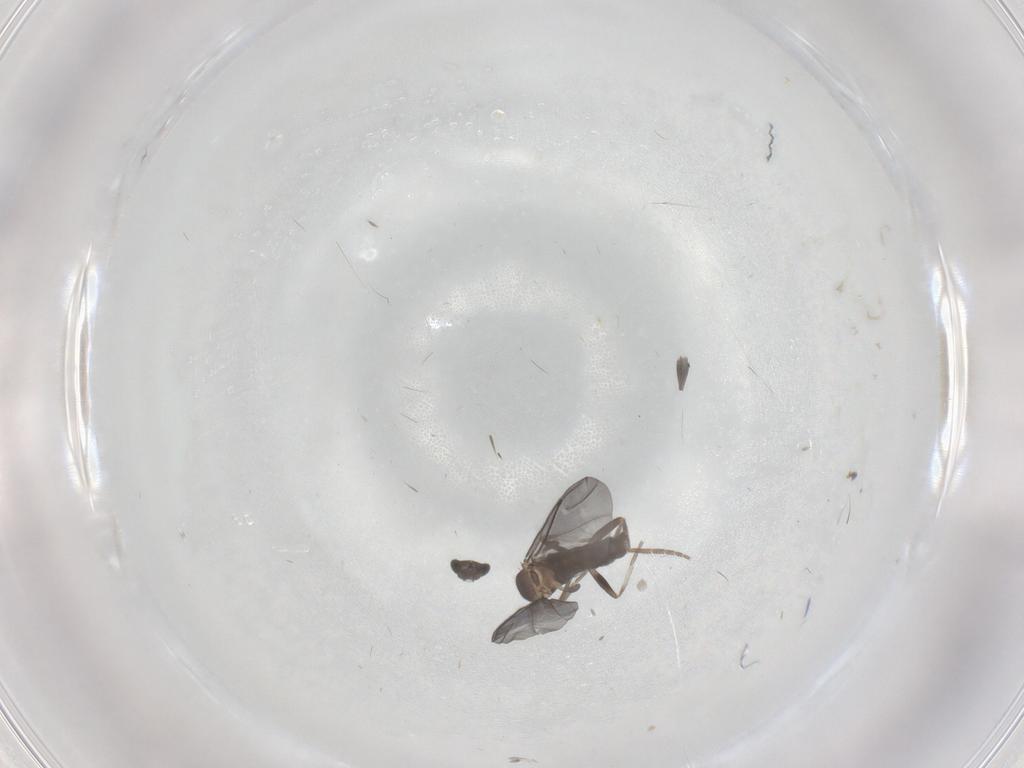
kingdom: Animalia
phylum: Arthropoda
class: Insecta
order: Diptera
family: Phoridae
